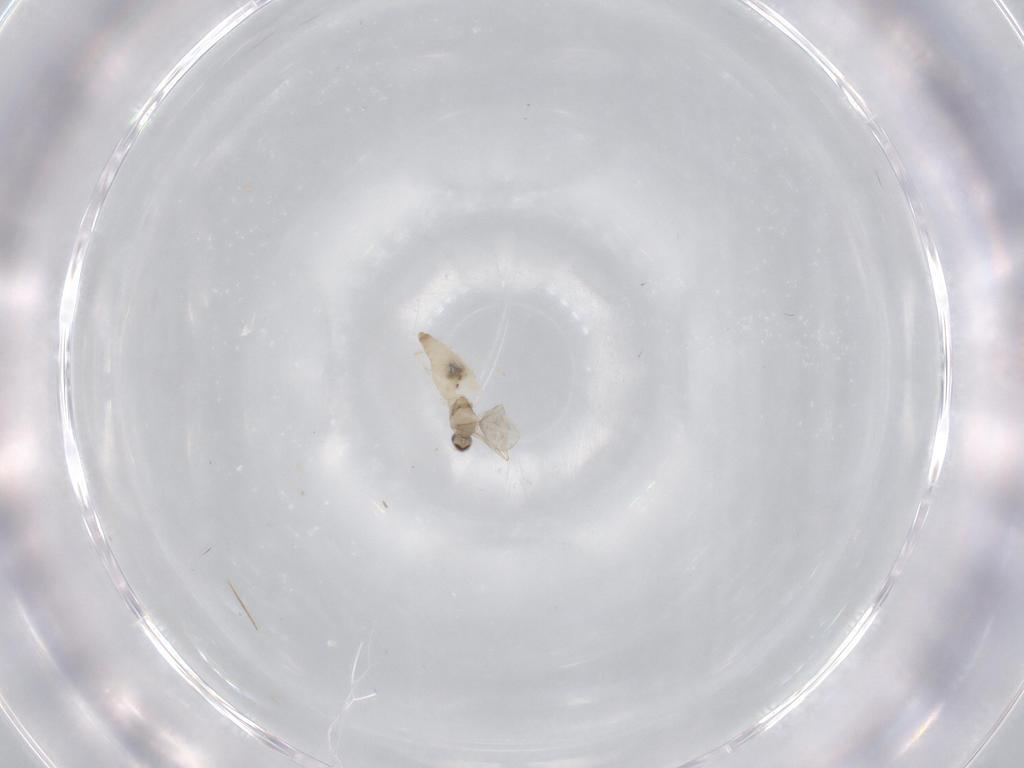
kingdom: Animalia
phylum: Arthropoda
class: Insecta
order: Diptera
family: Cecidomyiidae
